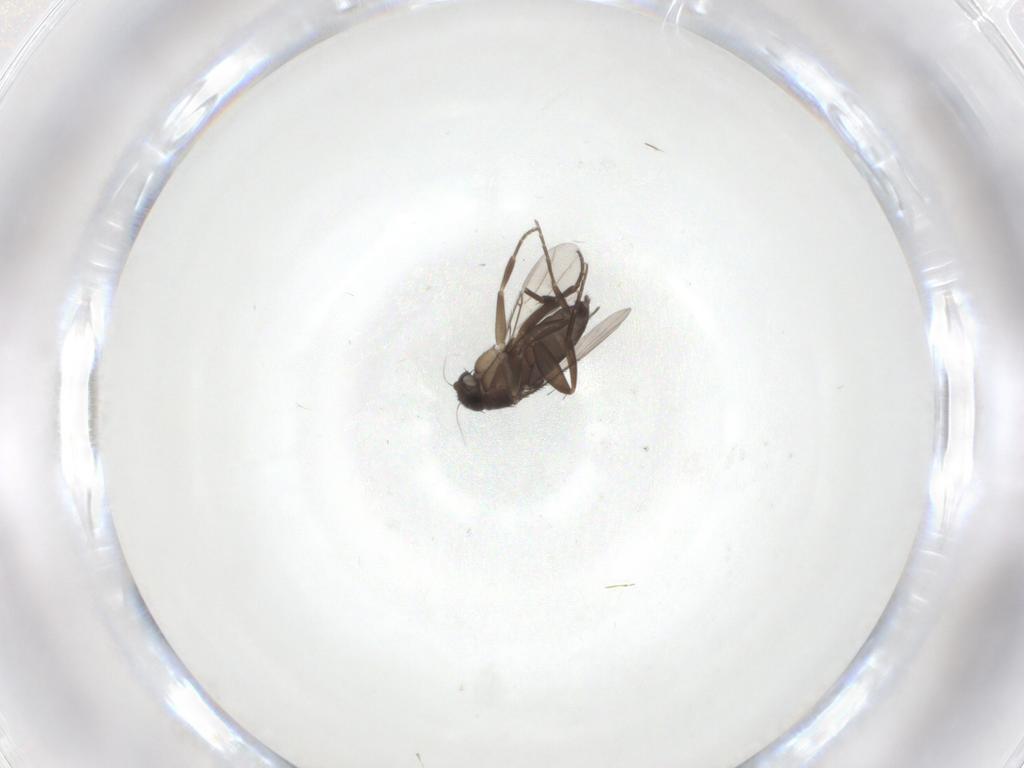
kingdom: Animalia
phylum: Arthropoda
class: Insecta
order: Diptera
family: Phoridae
